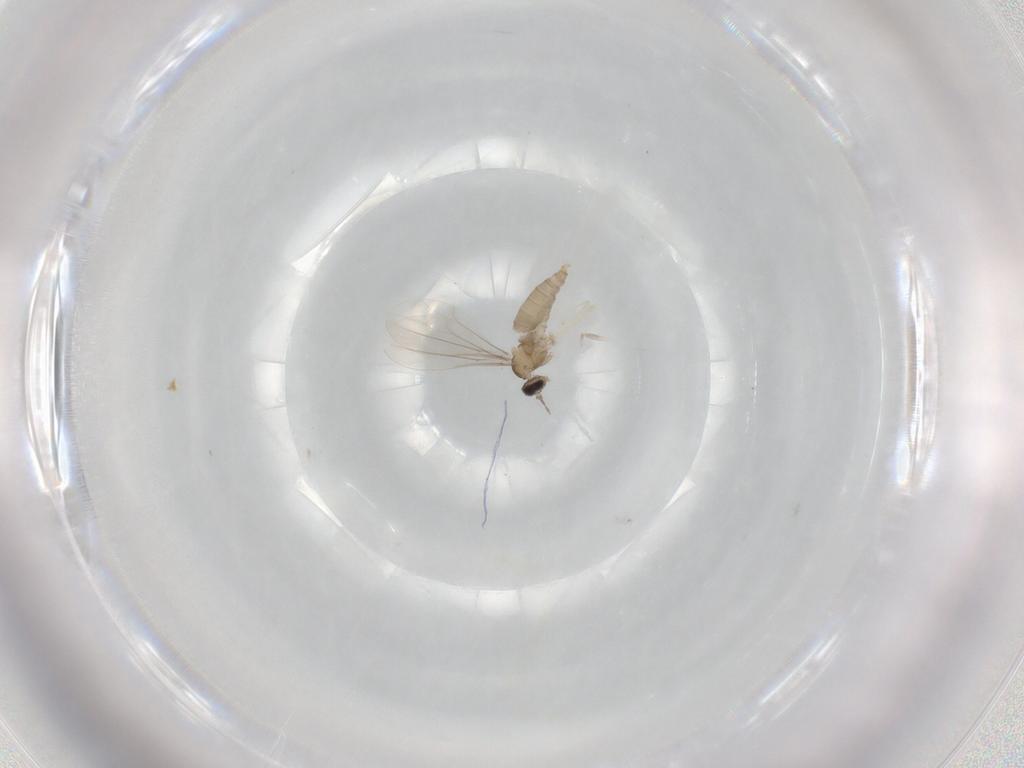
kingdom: Animalia
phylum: Arthropoda
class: Insecta
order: Diptera
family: Cecidomyiidae
